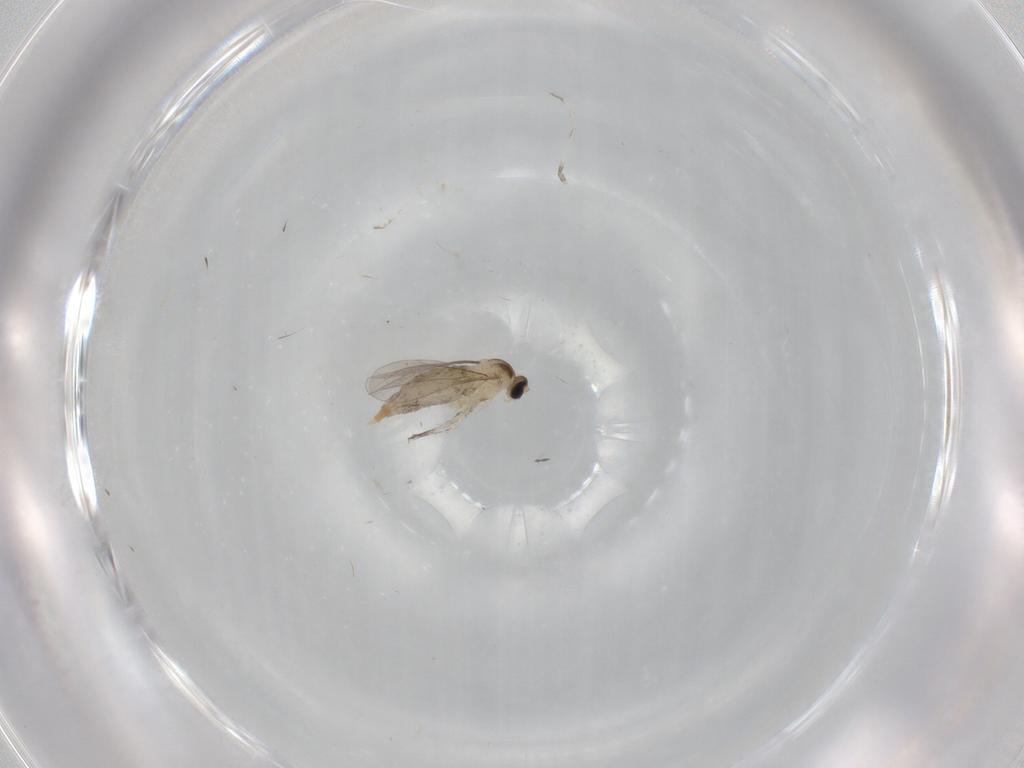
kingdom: Animalia
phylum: Arthropoda
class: Insecta
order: Diptera
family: Chironomidae
